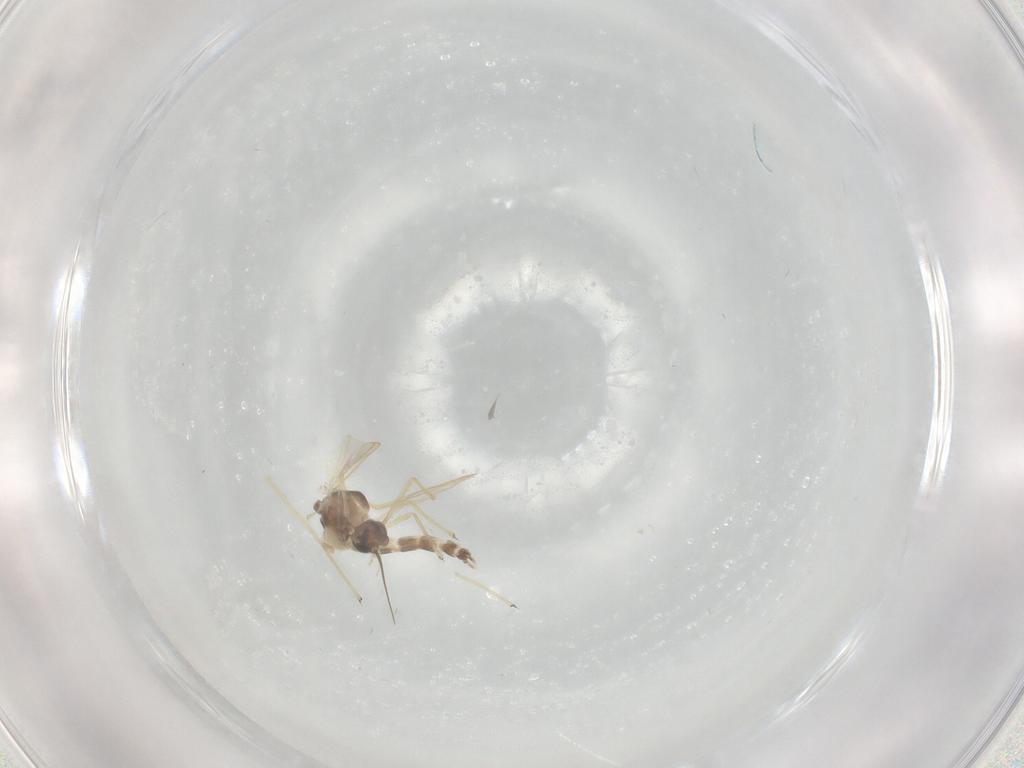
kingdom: Animalia
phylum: Arthropoda
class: Insecta
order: Diptera
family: Chironomidae
